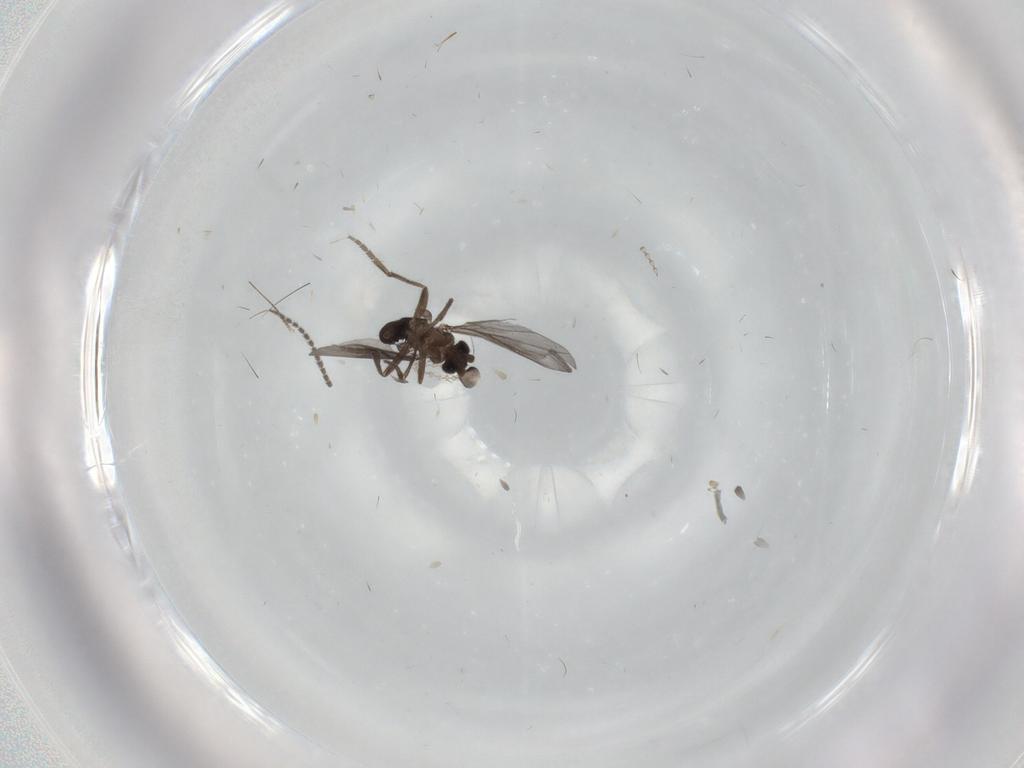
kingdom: Animalia
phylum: Arthropoda
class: Insecta
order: Diptera
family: Cecidomyiidae
